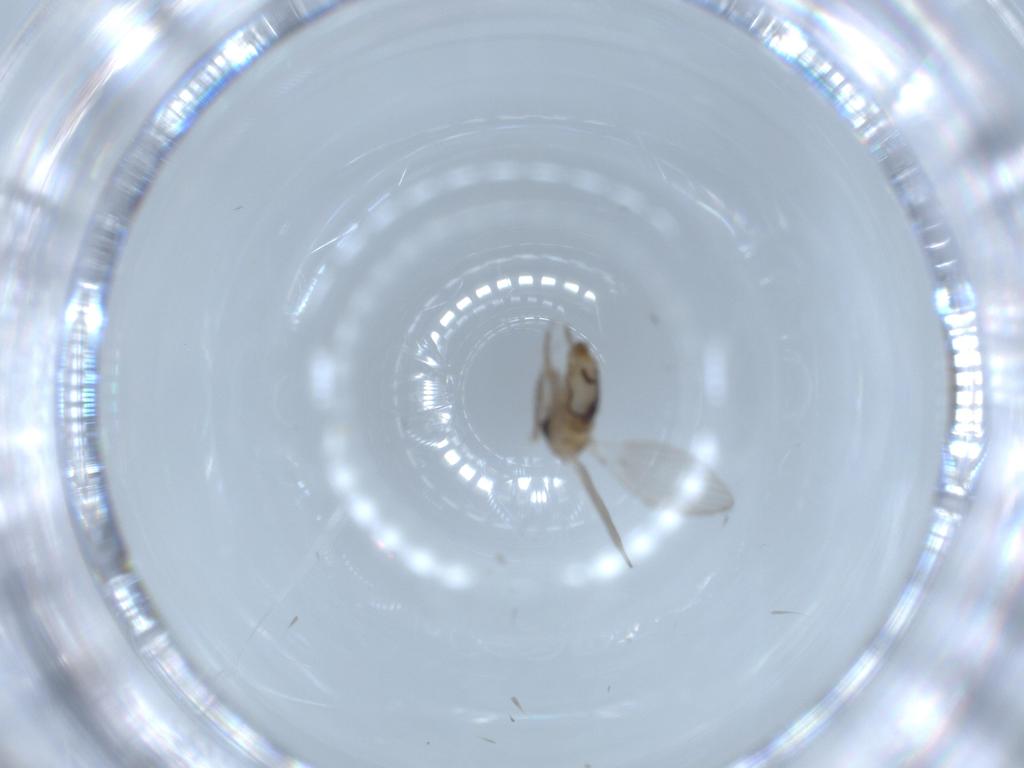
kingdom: Animalia
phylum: Arthropoda
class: Insecta
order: Diptera
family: Psychodidae
